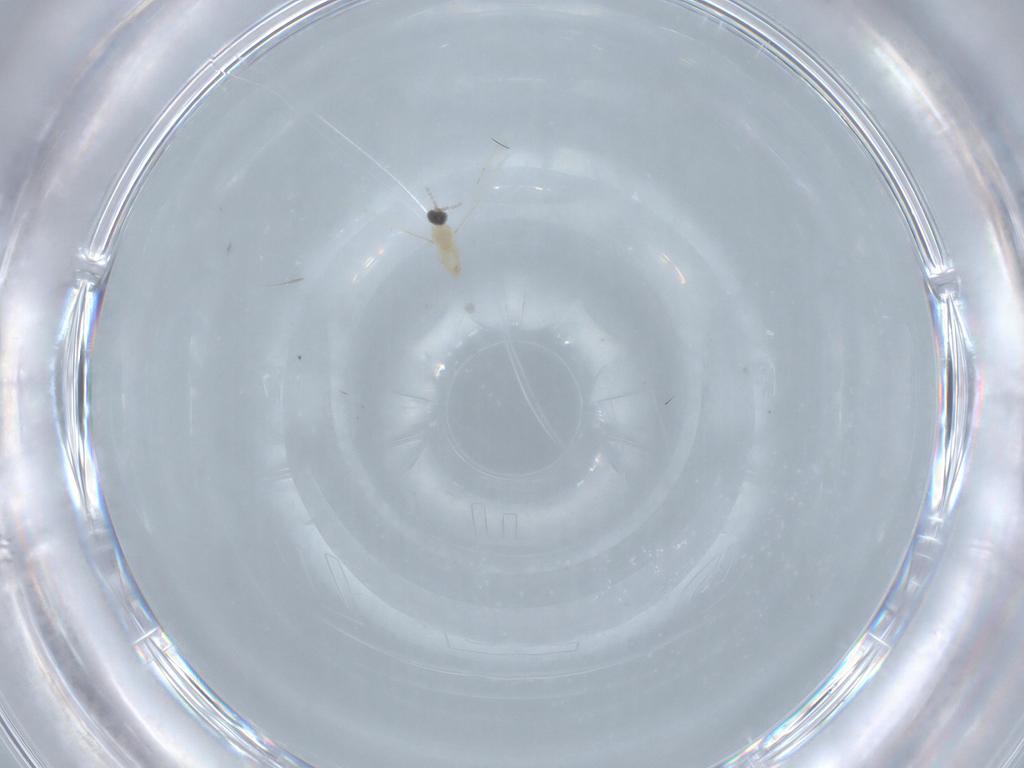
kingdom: Animalia
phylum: Arthropoda
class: Insecta
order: Diptera
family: Cecidomyiidae
